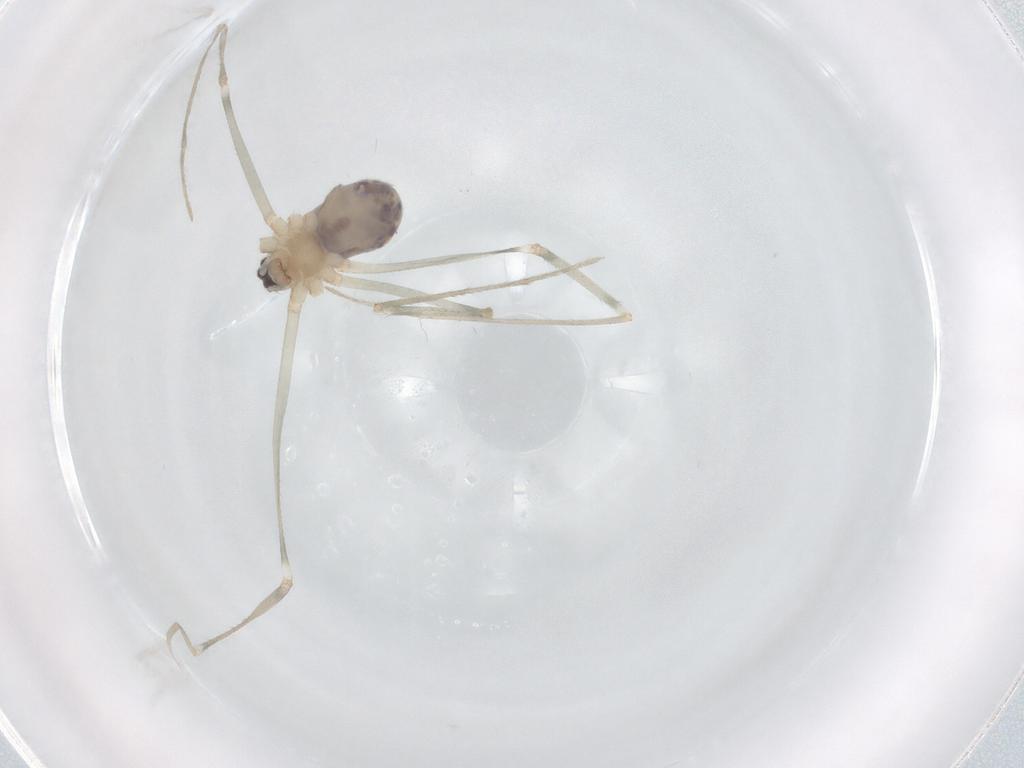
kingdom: Animalia
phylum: Arthropoda
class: Arachnida
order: Araneae
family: Pholcidae
